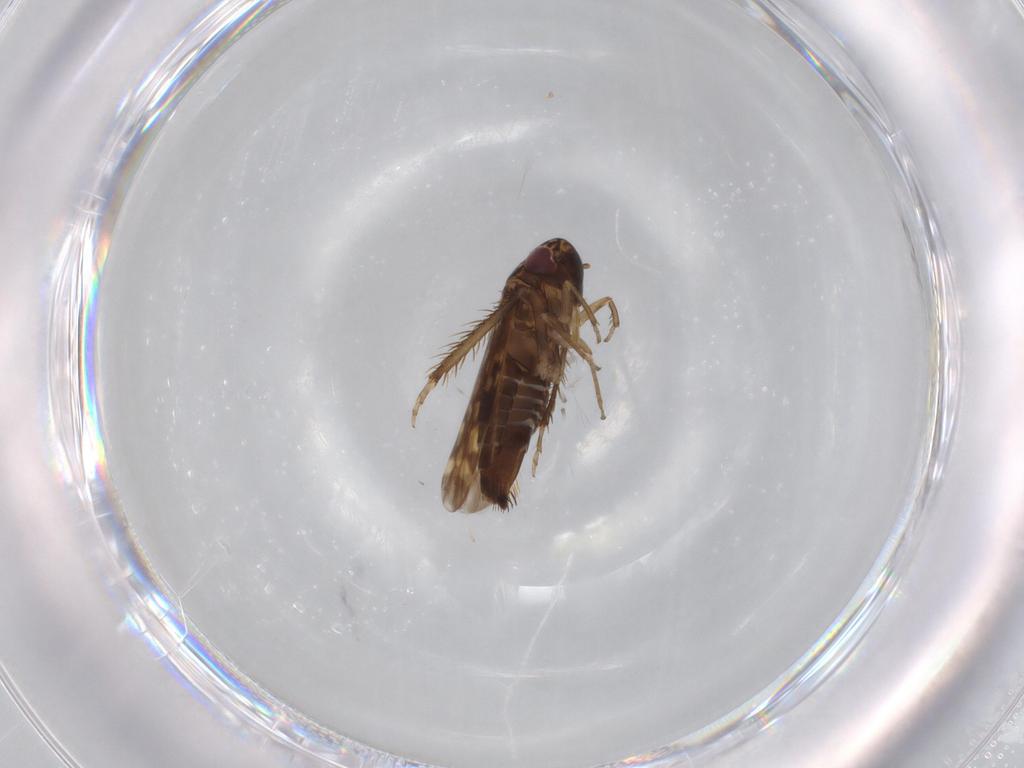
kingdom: Animalia
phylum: Arthropoda
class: Insecta
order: Hemiptera
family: Cicadellidae
